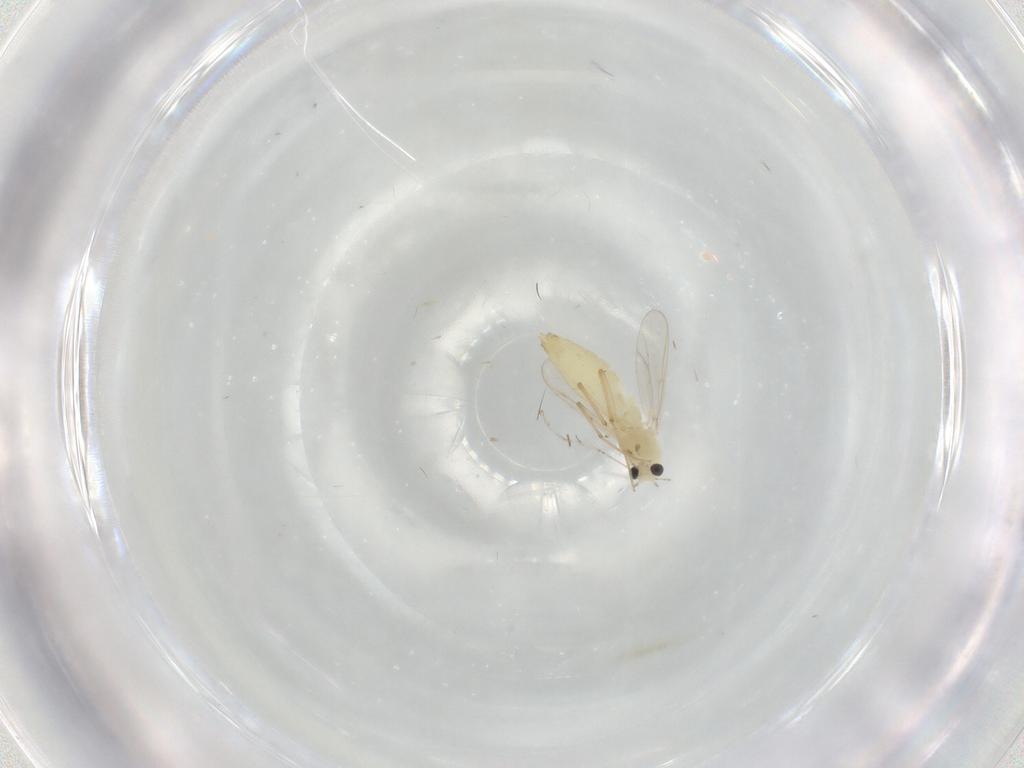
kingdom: Animalia
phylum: Arthropoda
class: Insecta
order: Diptera
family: Chironomidae
